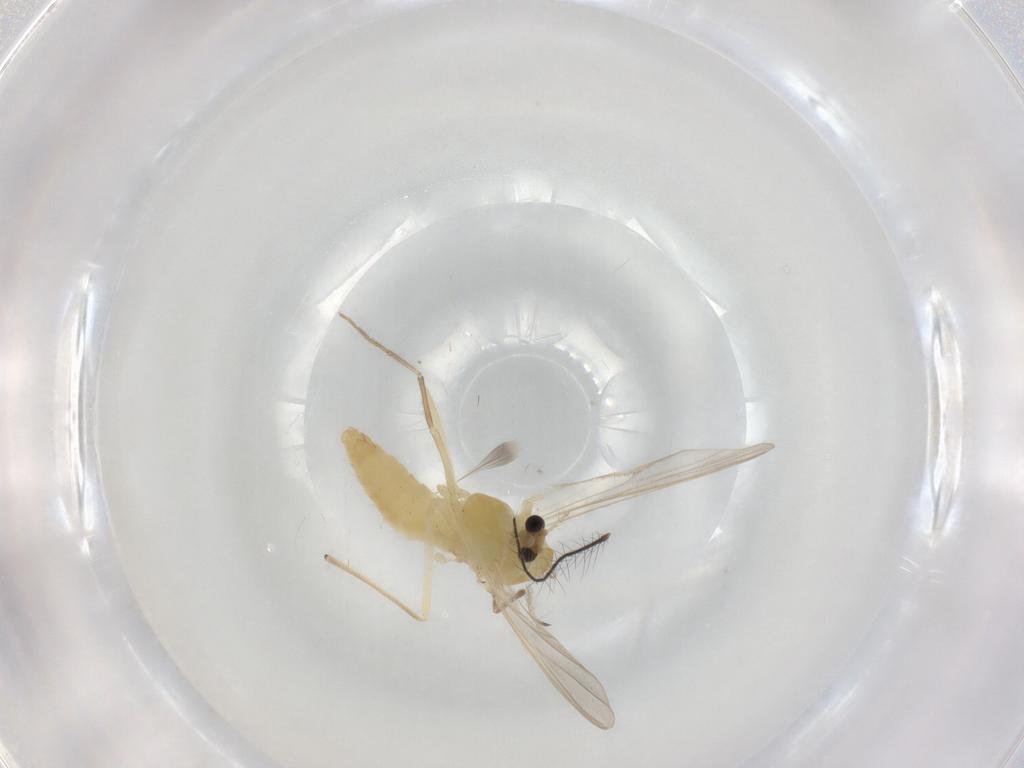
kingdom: Animalia
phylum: Arthropoda
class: Insecta
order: Diptera
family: Chironomidae
